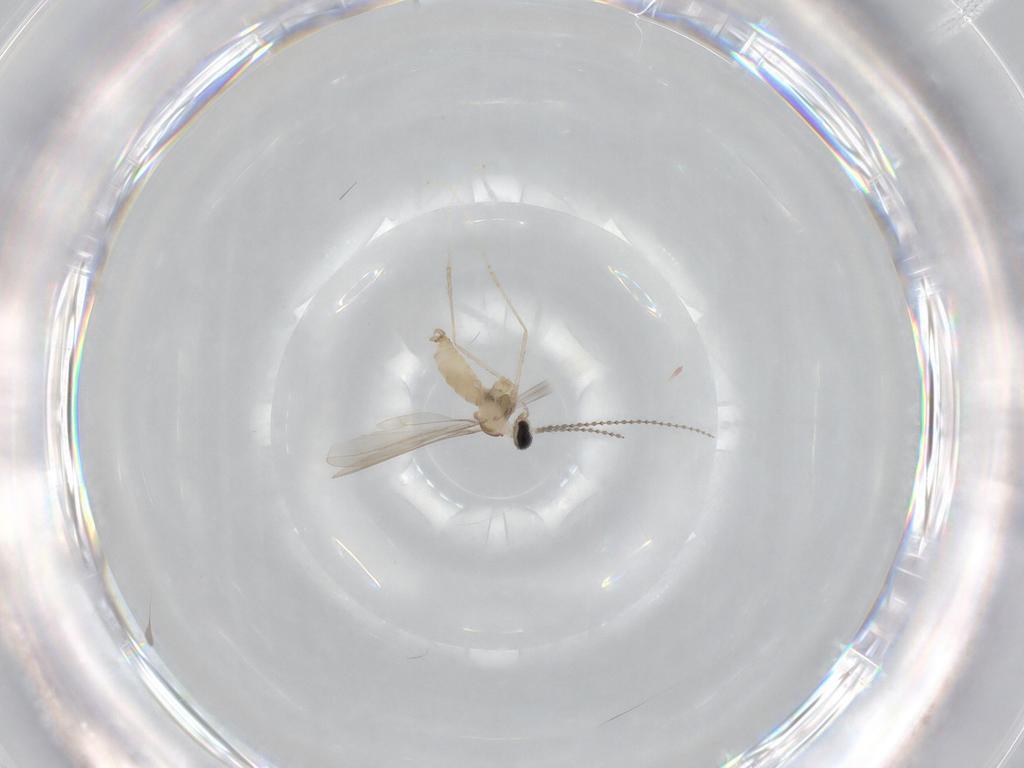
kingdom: Animalia
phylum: Arthropoda
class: Insecta
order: Diptera
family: Cecidomyiidae
